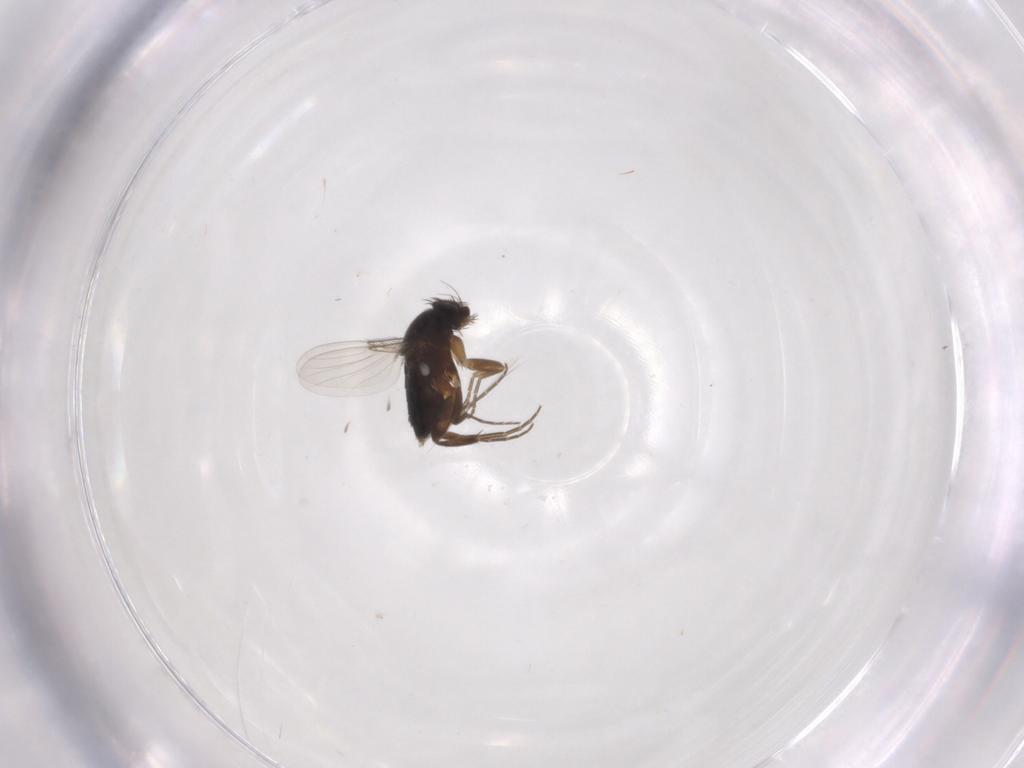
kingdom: Animalia
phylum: Arthropoda
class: Insecta
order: Diptera
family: Phoridae
